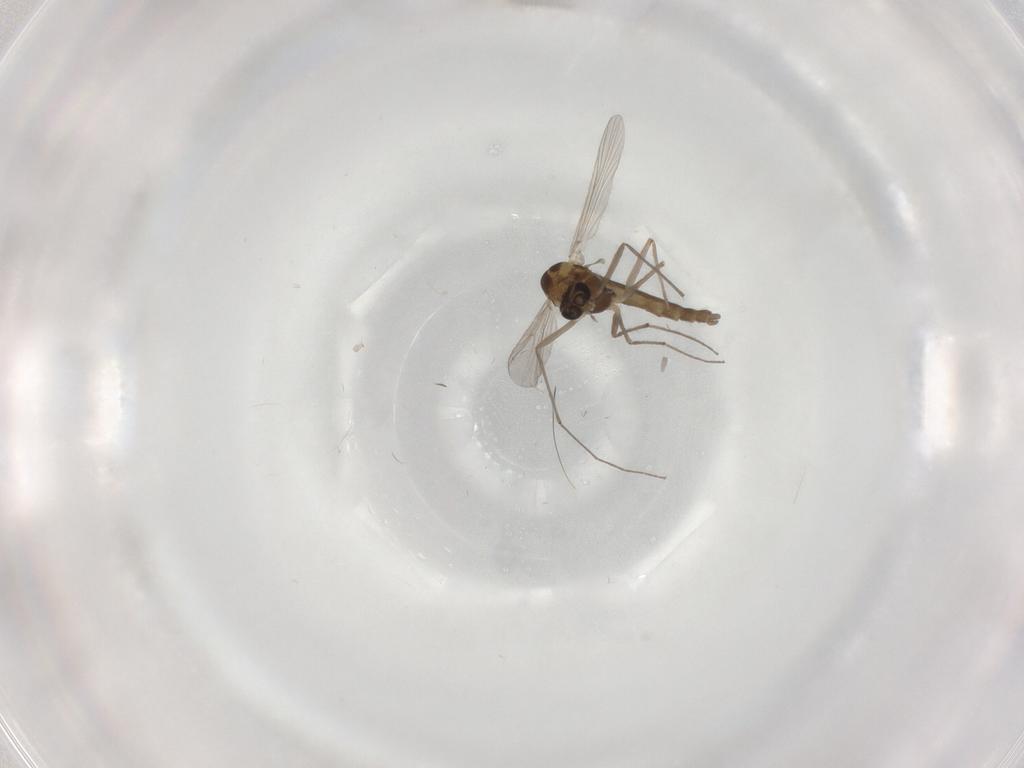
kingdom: Animalia
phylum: Arthropoda
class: Insecta
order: Diptera
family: Chironomidae
